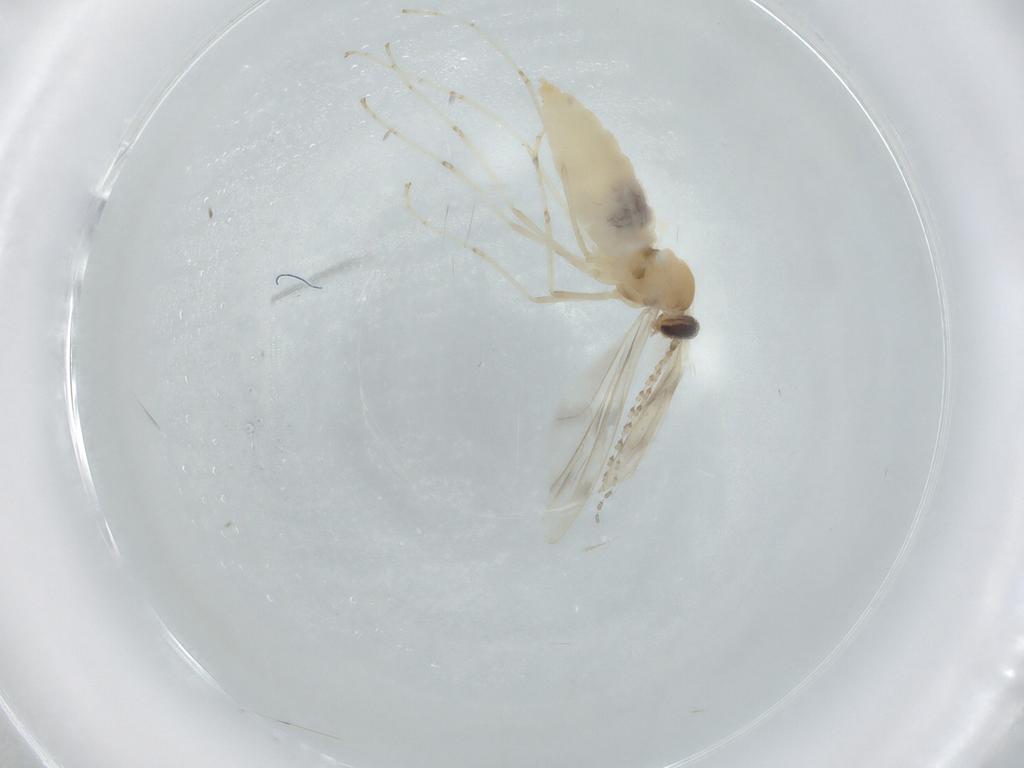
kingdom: Animalia
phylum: Arthropoda
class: Insecta
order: Diptera
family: Cecidomyiidae
